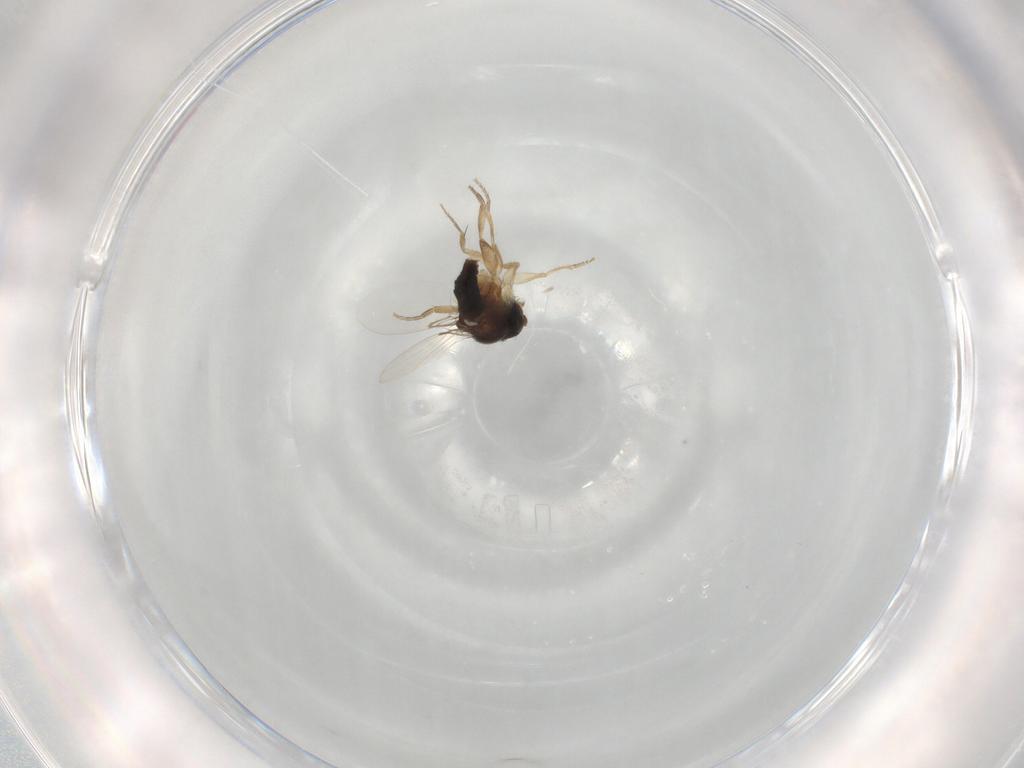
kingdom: Animalia
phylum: Arthropoda
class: Insecta
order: Diptera
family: Phoridae
